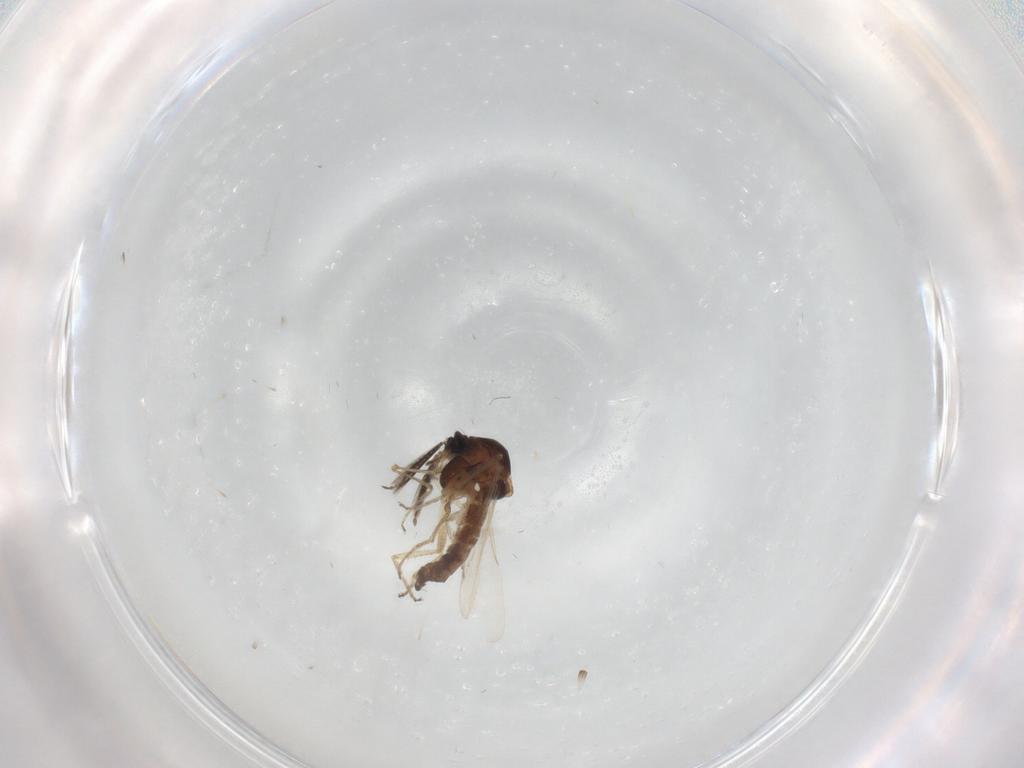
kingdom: Animalia
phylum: Arthropoda
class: Insecta
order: Diptera
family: Ceratopogonidae
